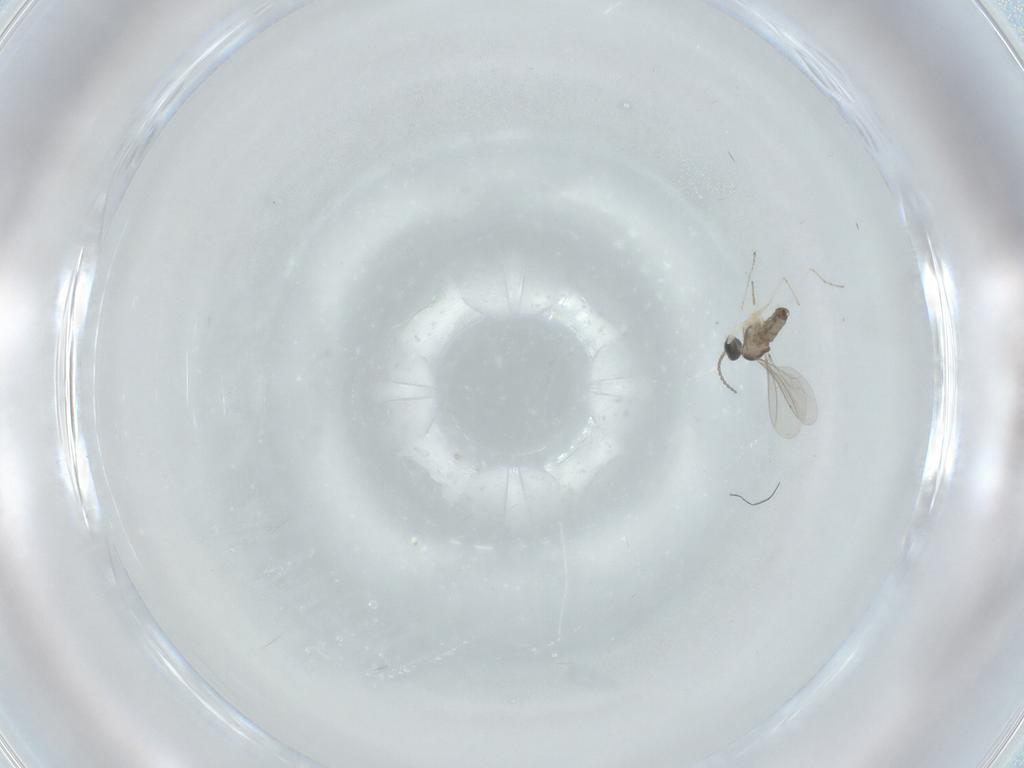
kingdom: Animalia
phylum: Arthropoda
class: Insecta
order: Diptera
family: Cecidomyiidae
